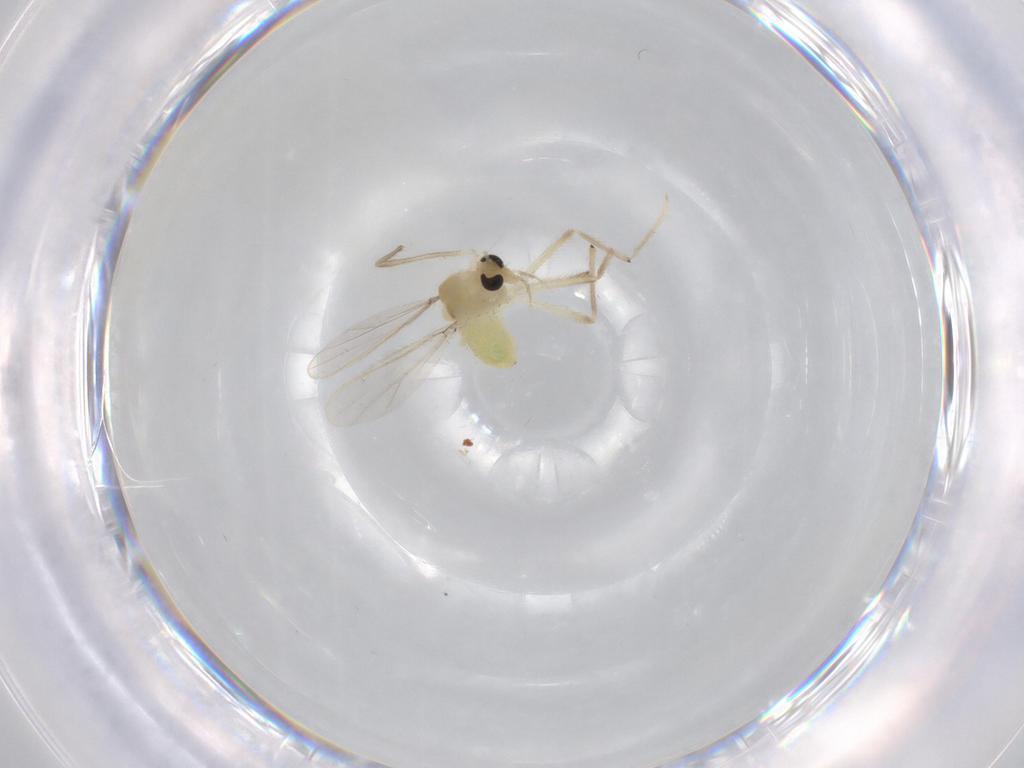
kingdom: Animalia
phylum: Arthropoda
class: Insecta
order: Diptera
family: Chironomidae
